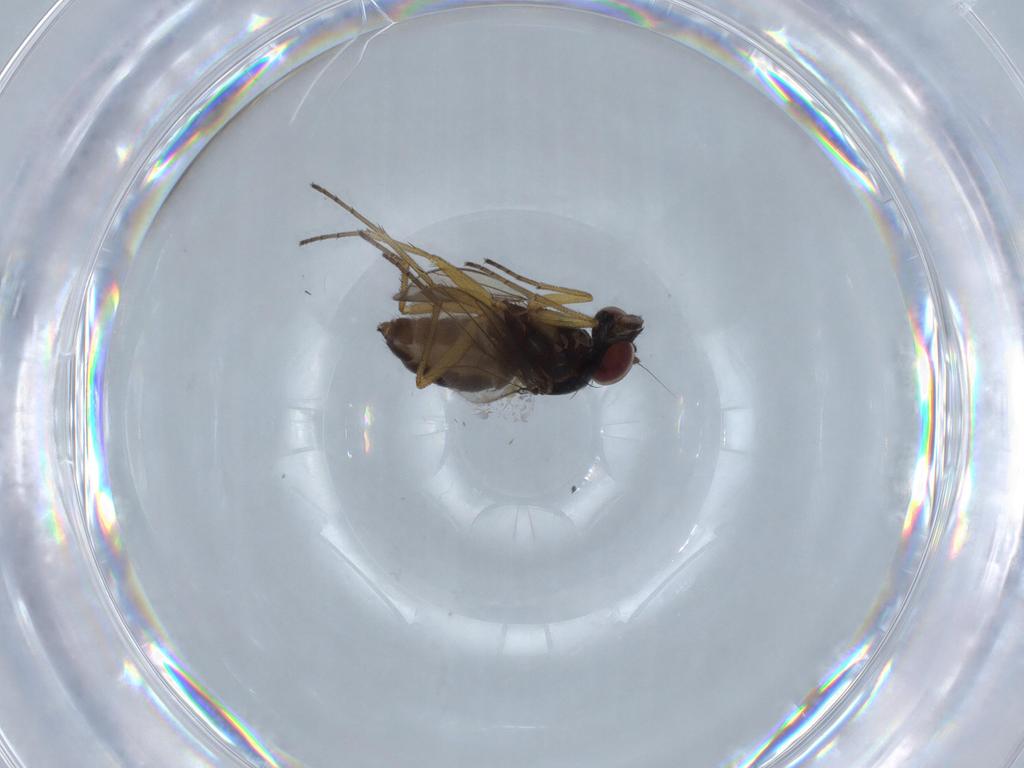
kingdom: Animalia
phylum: Arthropoda
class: Insecta
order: Diptera
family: Dolichopodidae
